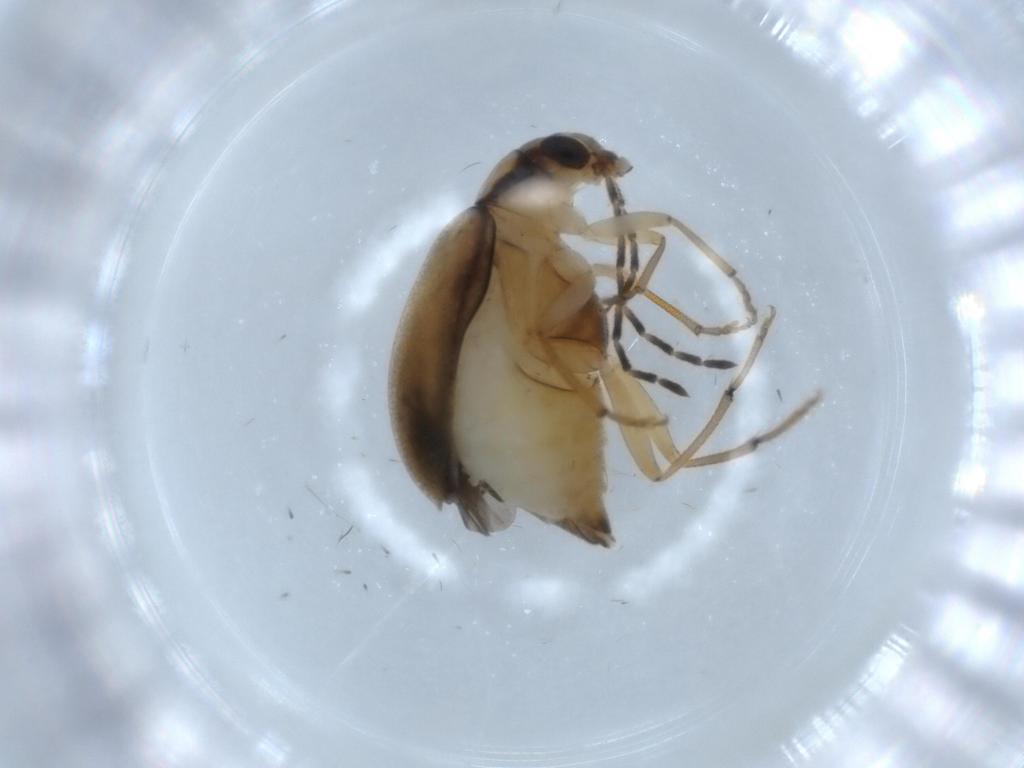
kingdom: Animalia
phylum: Arthropoda
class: Insecta
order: Coleoptera
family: Chrysomelidae
